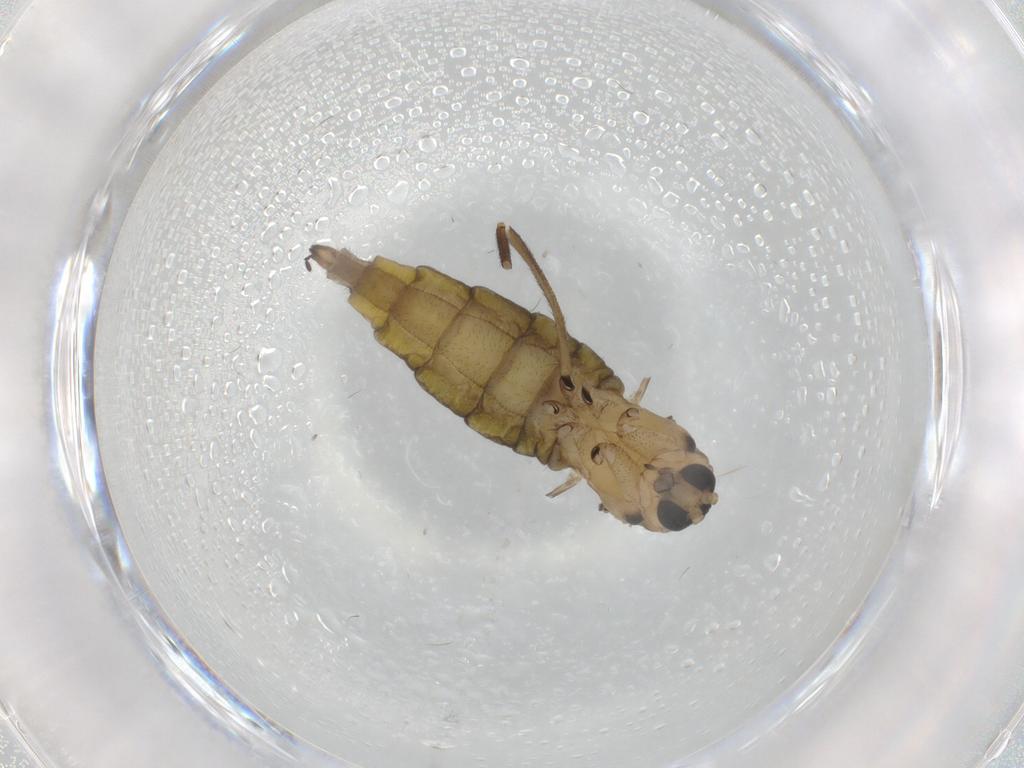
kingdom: Animalia
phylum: Arthropoda
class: Insecta
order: Diptera
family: Sciaridae
